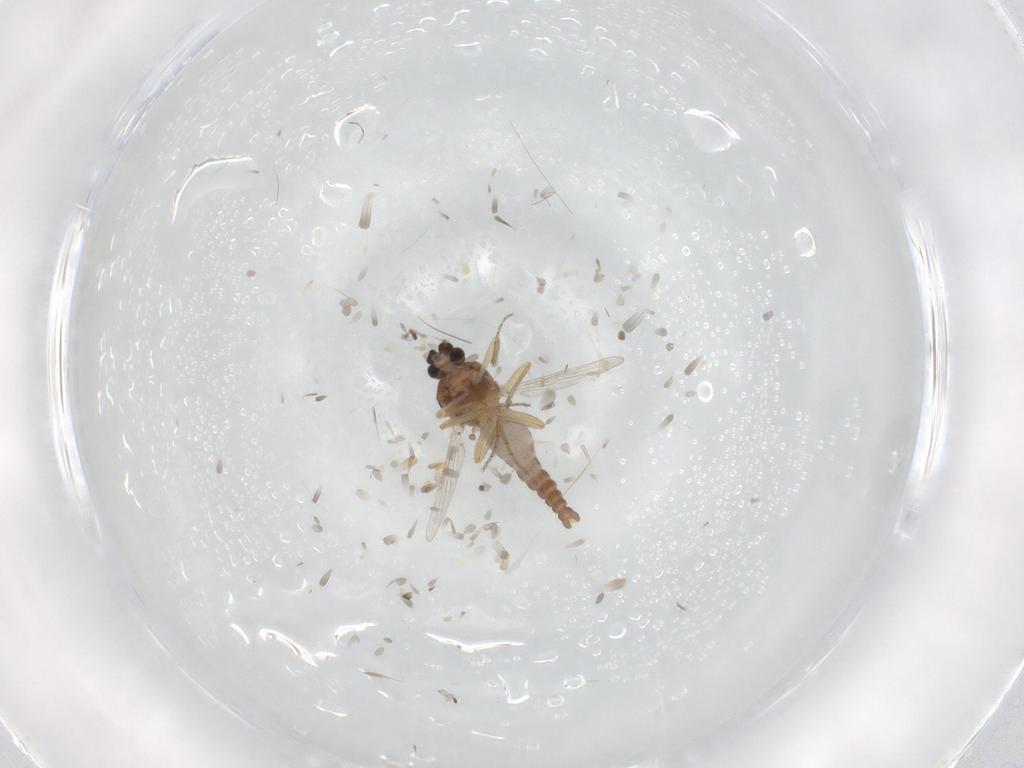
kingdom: Animalia
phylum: Arthropoda
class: Insecta
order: Diptera
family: Ceratopogonidae
